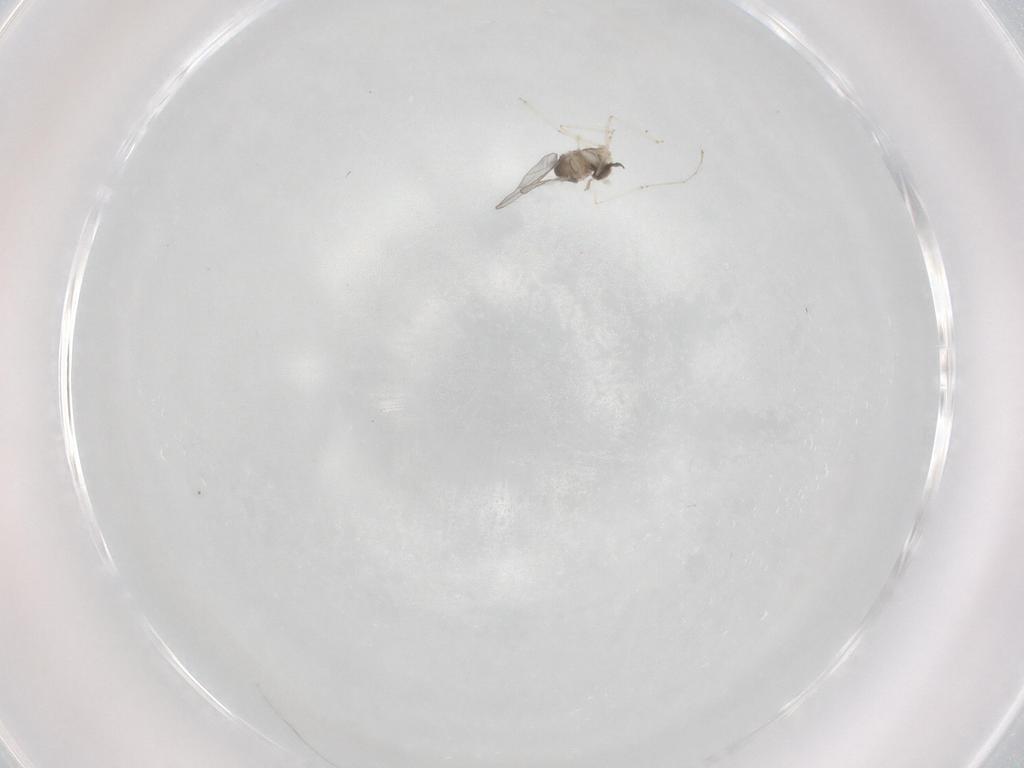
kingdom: Animalia
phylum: Arthropoda
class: Insecta
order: Diptera
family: Cecidomyiidae
